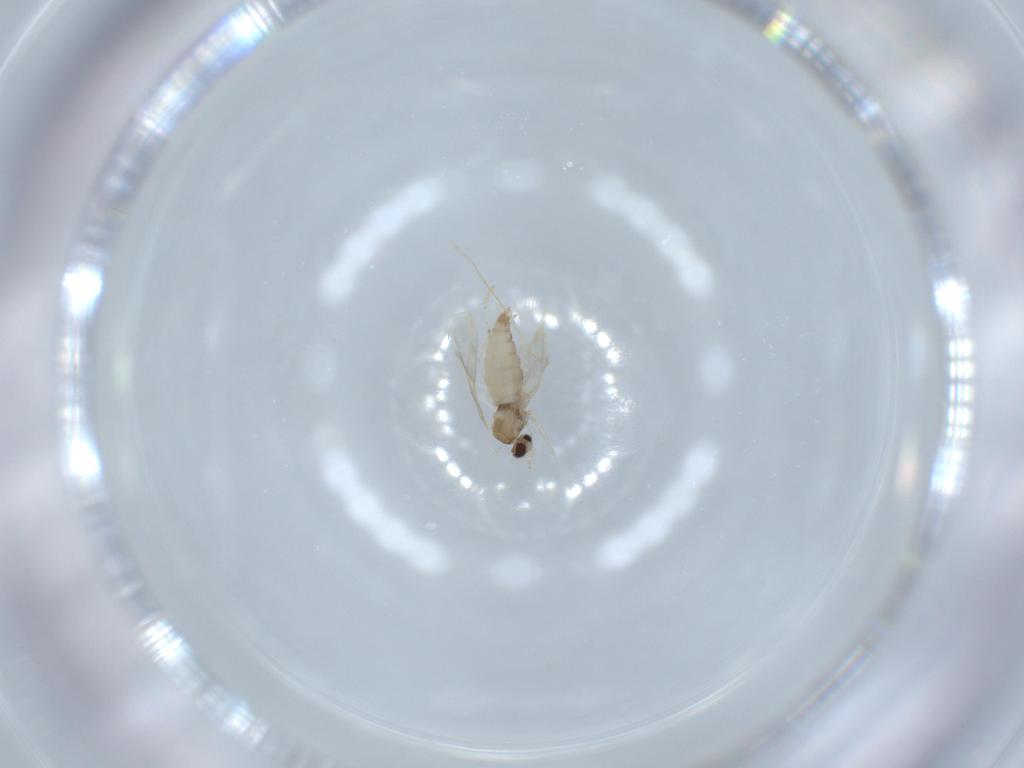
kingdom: Animalia
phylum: Arthropoda
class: Insecta
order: Diptera
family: Cecidomyiidae
